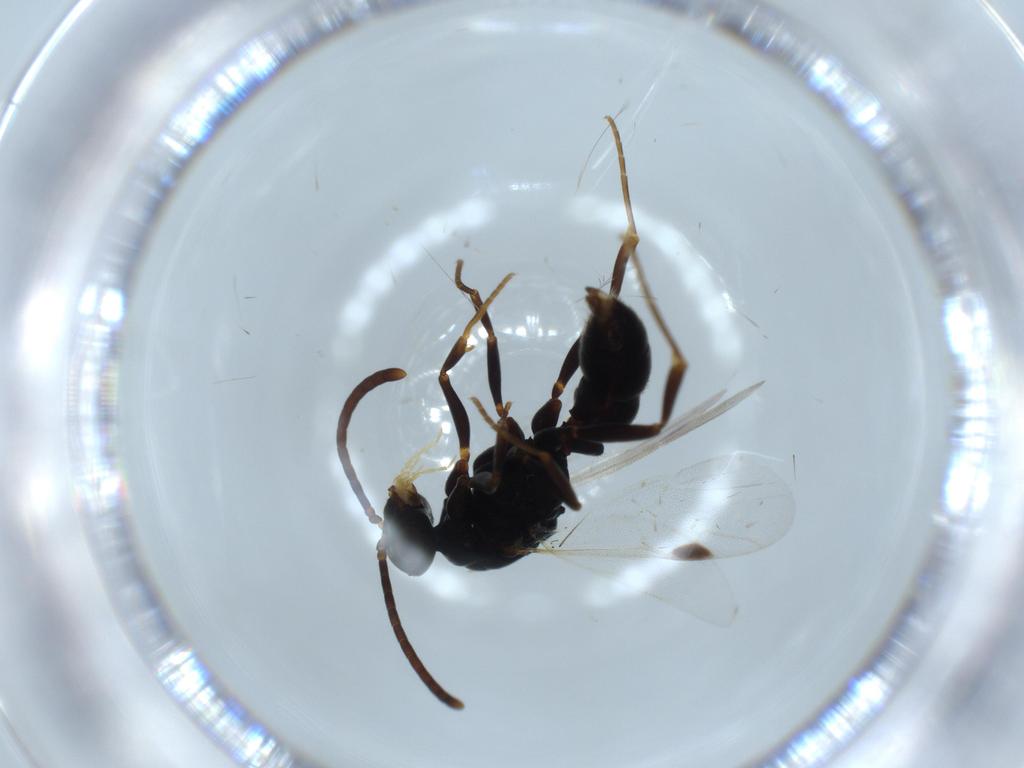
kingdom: Animalia
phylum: Arthropoda
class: Insecta
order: Hymenoptera
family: Formicidae
